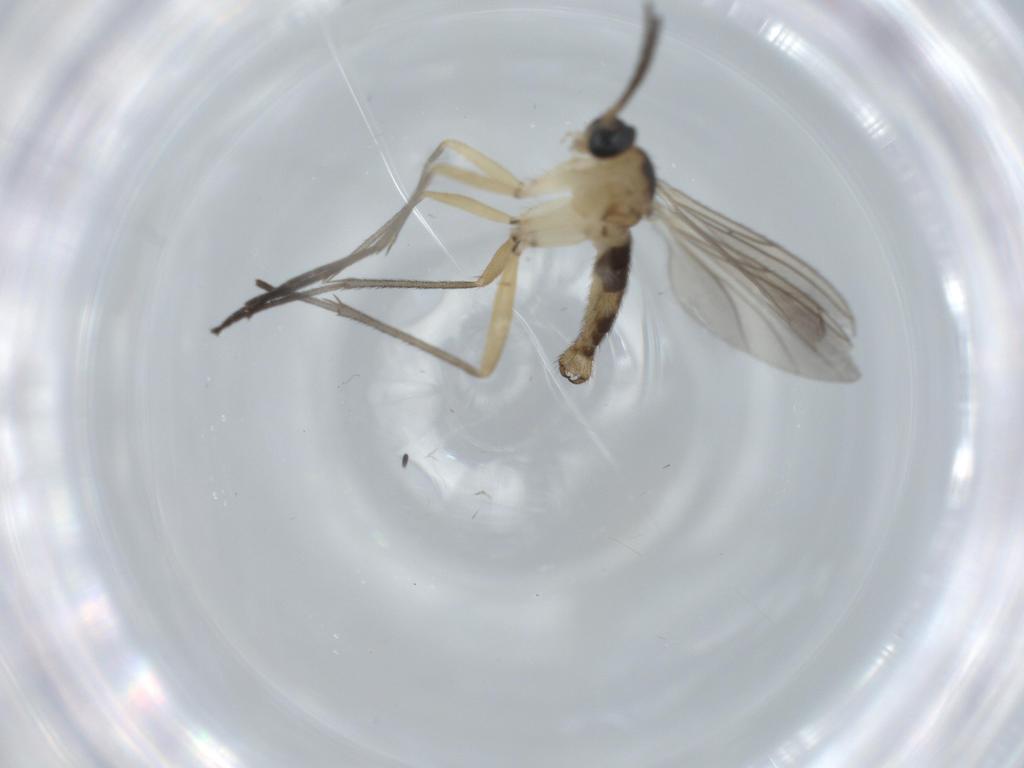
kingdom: Animalia
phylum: Arthropoda
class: Insecta
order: Diptera
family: Sciaridae
